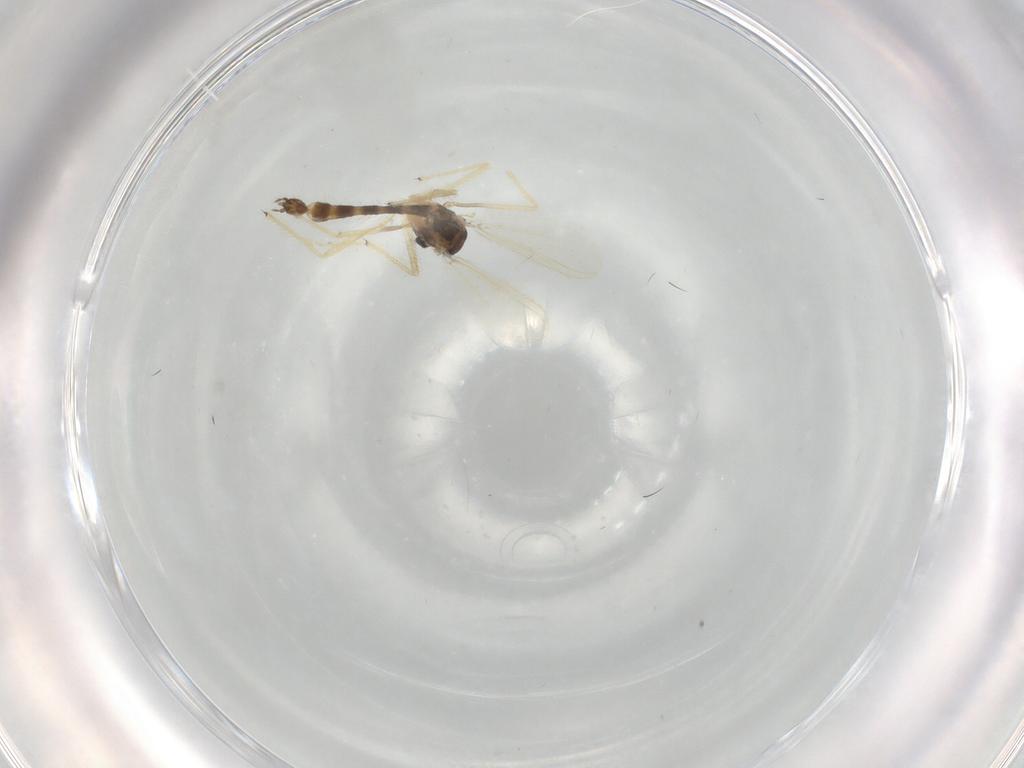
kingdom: Animalia
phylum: Arthropoda
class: Insecta
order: Diptera
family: Chironomidae
